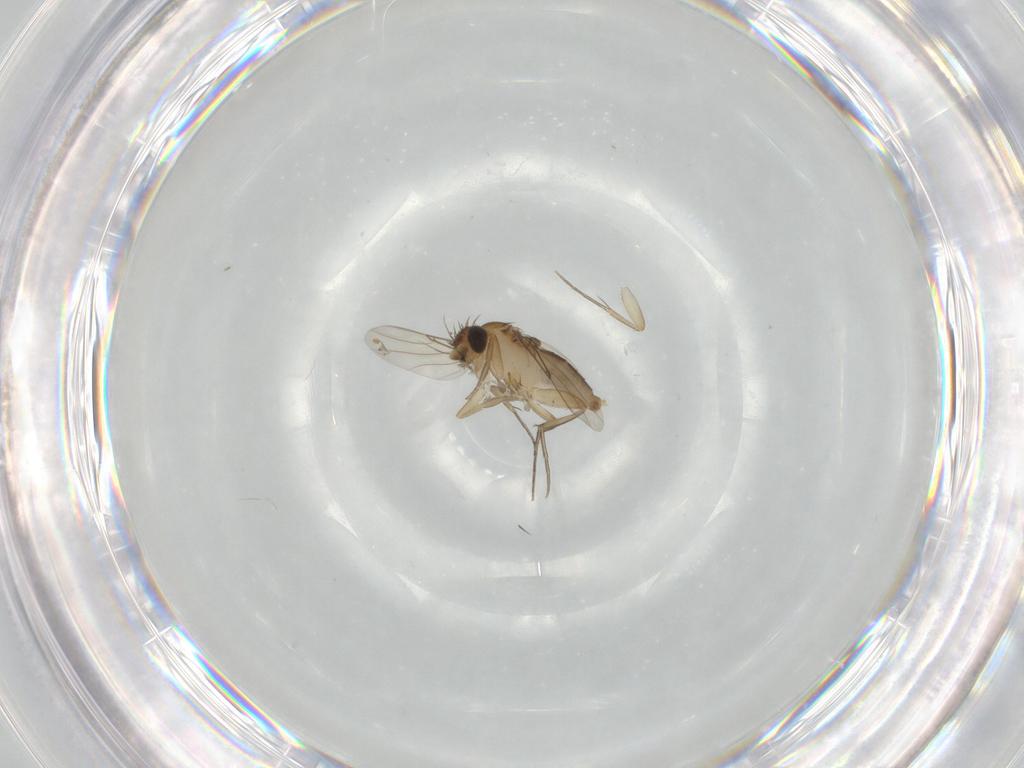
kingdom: Animalia
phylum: Arthropoda
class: Insecta
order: Diptera
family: Phoridae
